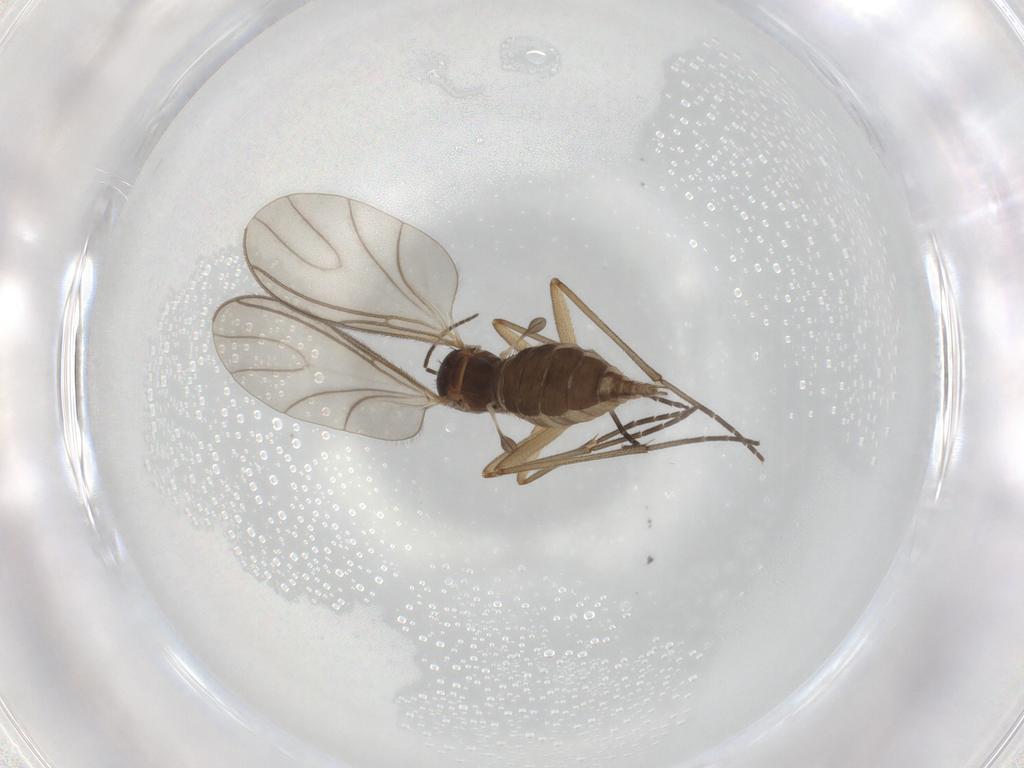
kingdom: Animalia
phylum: Arthropoda
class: Insecta
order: Diptera
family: Sciaridae
